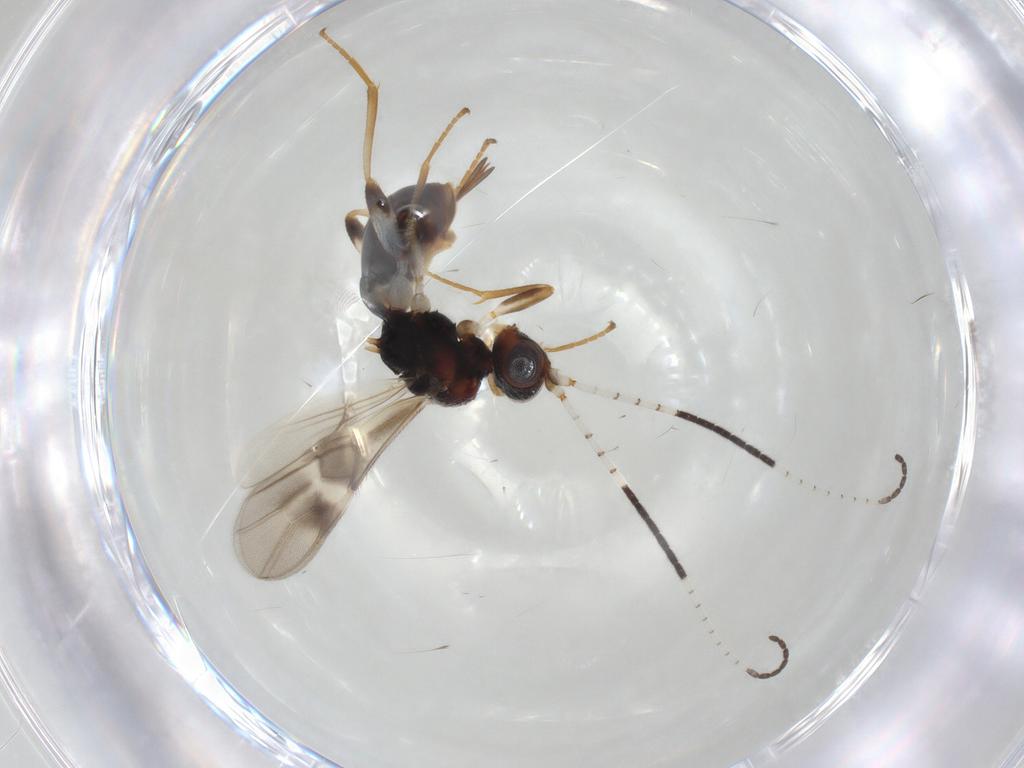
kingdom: Animalia
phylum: Arthropoda
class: Insecta
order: Hymenoptera
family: Braconidae
